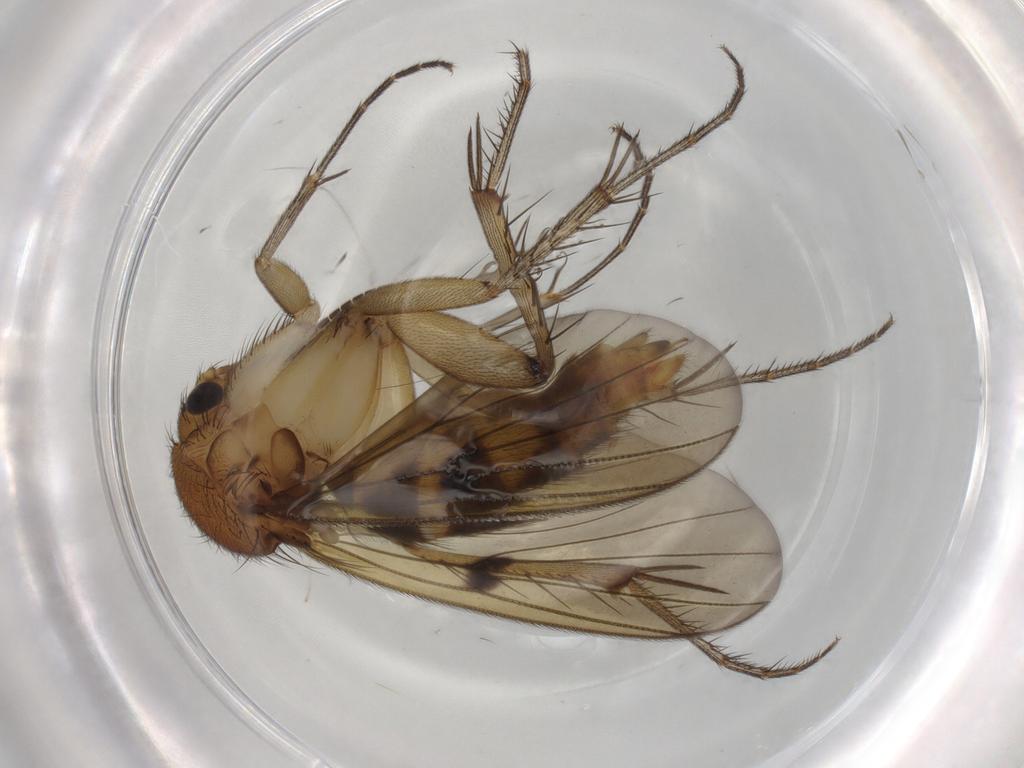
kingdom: Animalia
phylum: Arthropoda
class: Insecta
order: Diptera
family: Mycetophilidae
